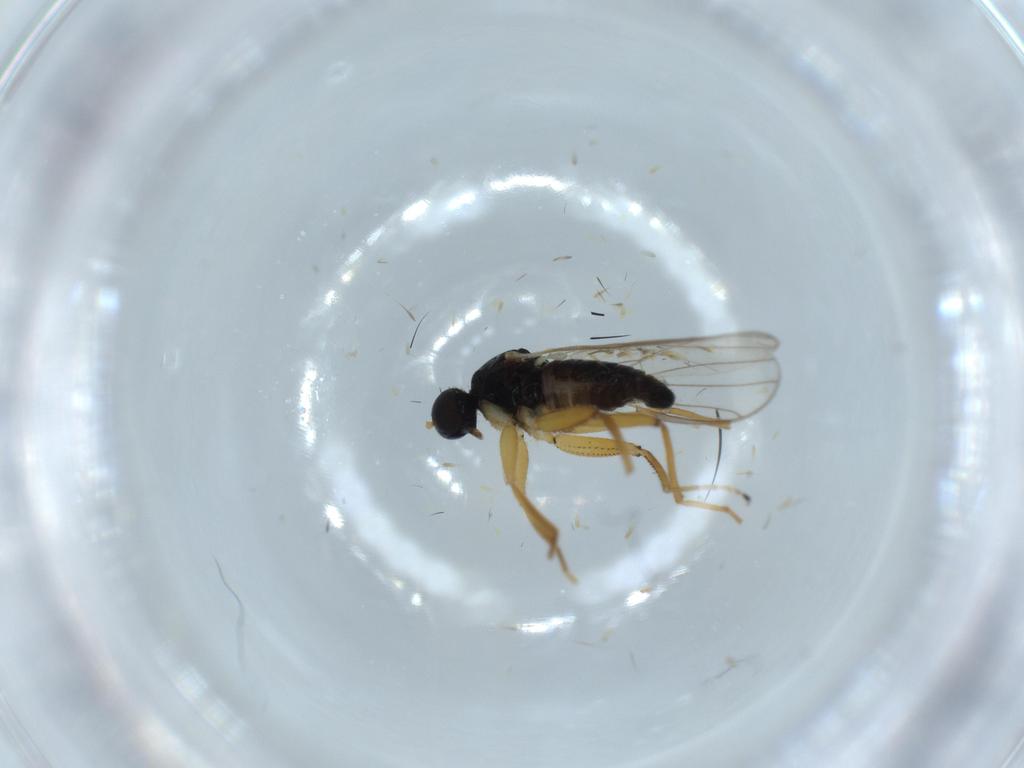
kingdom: Animalia
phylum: Arthropoda
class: Insecta
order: Diptera
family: Hybotidae
